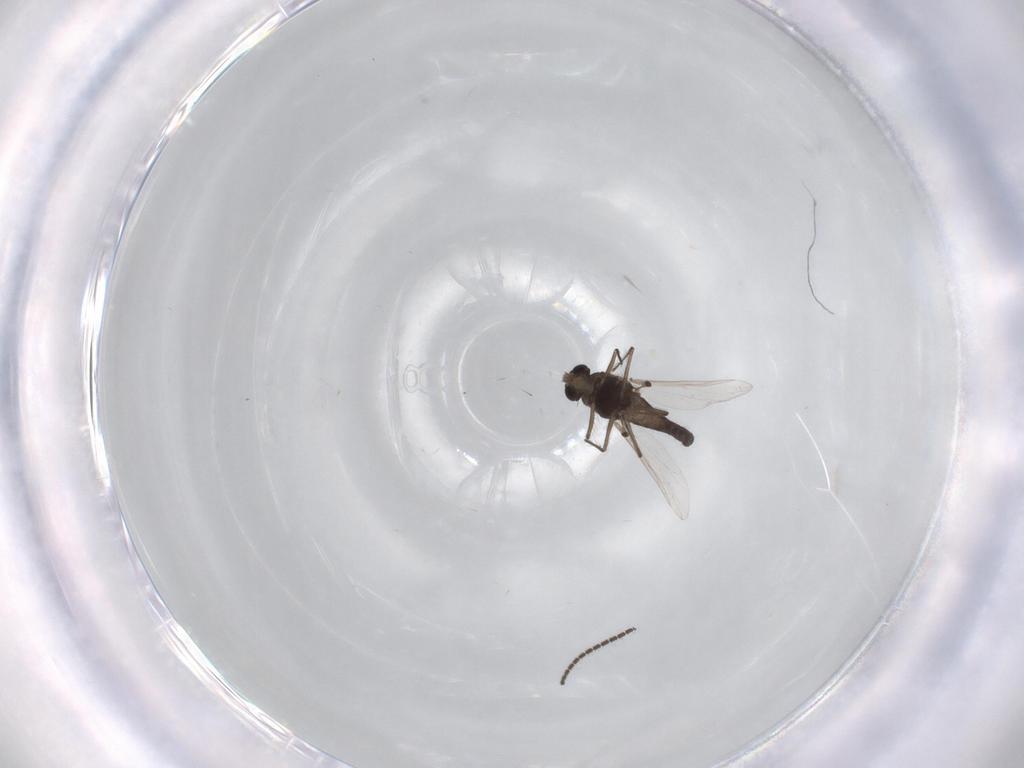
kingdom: Animalia
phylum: Arthropoda
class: Insecta
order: Diptera
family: Chironomidae
